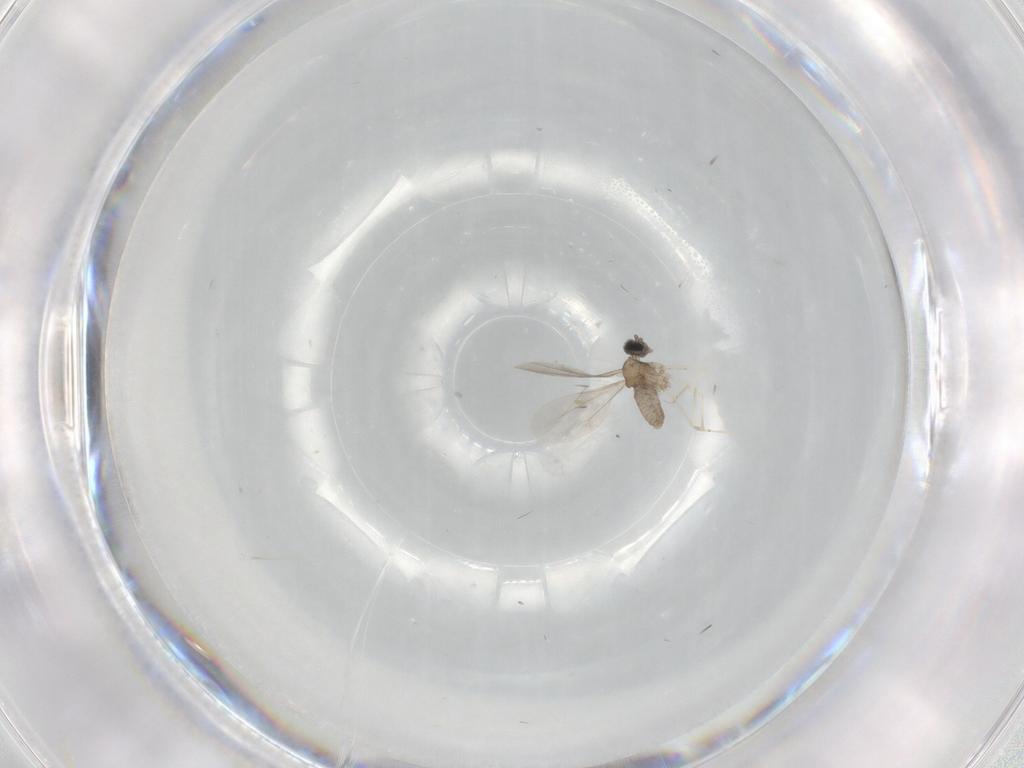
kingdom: Animalia
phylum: Arthropoda
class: Insecta
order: Diptera
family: Cecidomyiidae
